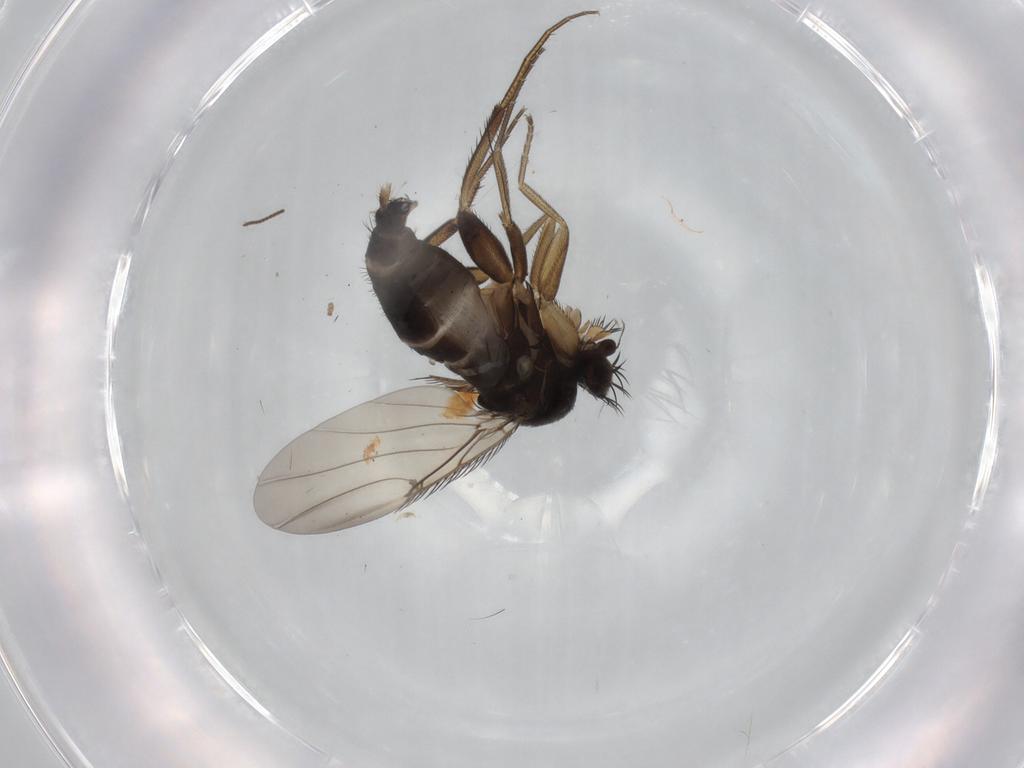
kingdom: Animalia
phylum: Arthropoda
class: Insecta
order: Diptera
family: Phoridae
